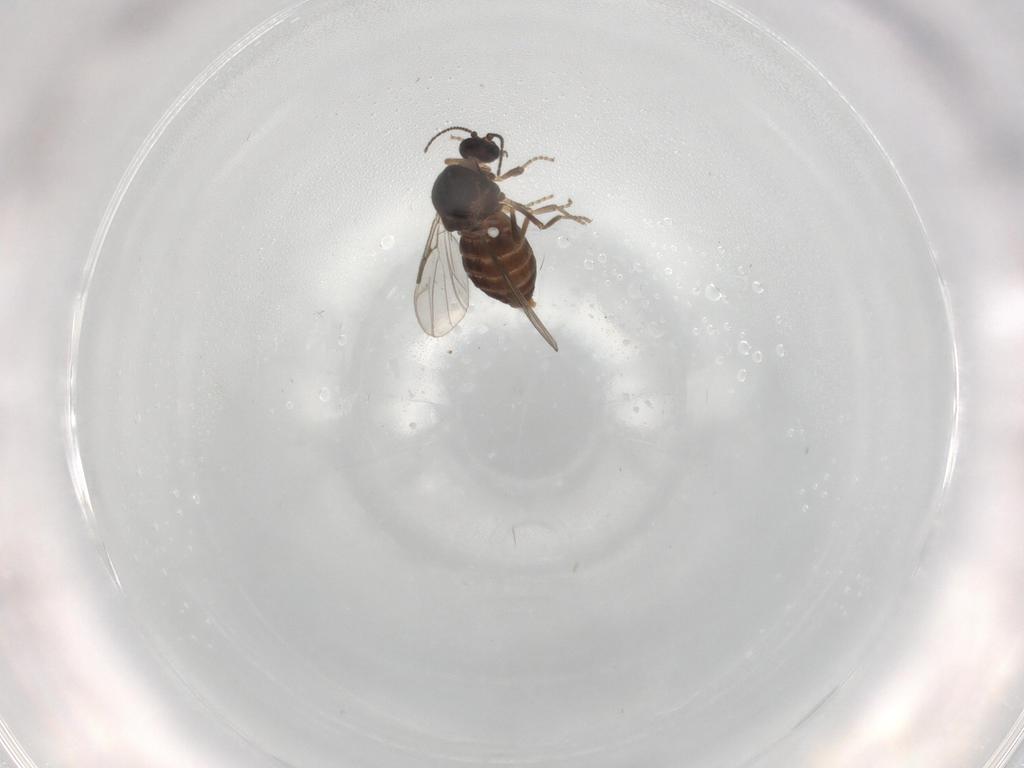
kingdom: Animalia
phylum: Arthropoda
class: Insecta
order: Diptera
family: Ceratopogonidae
